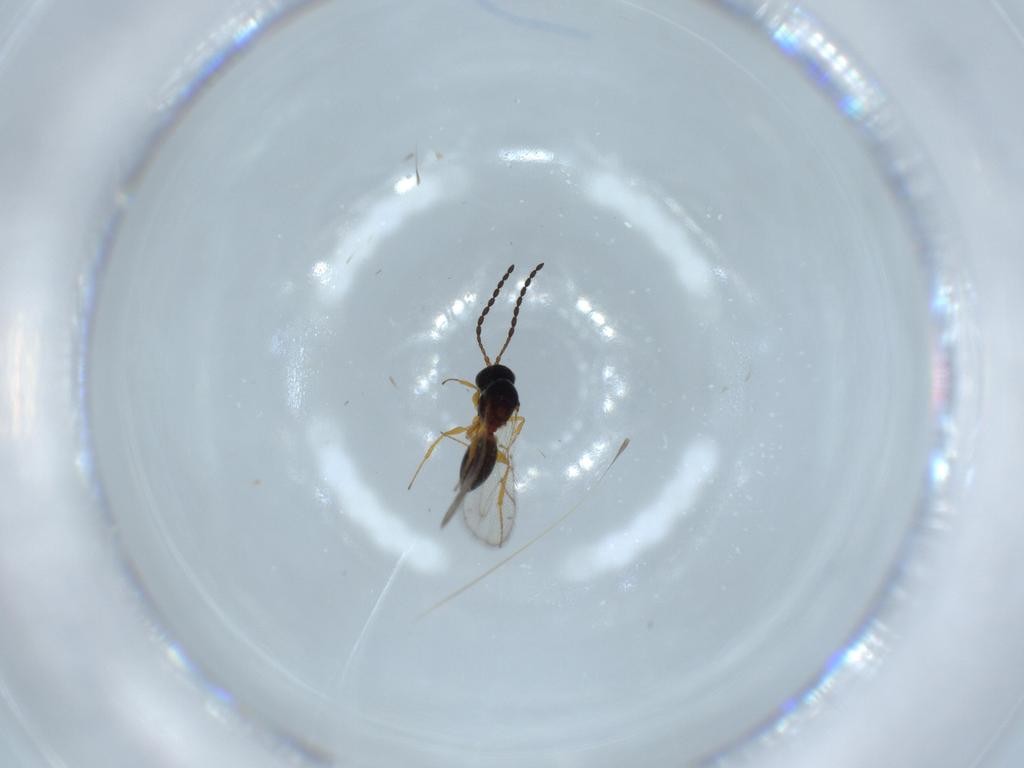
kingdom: Animalia
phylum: Arthropoda
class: Insecta
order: Hymenoptera
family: Figitidae
